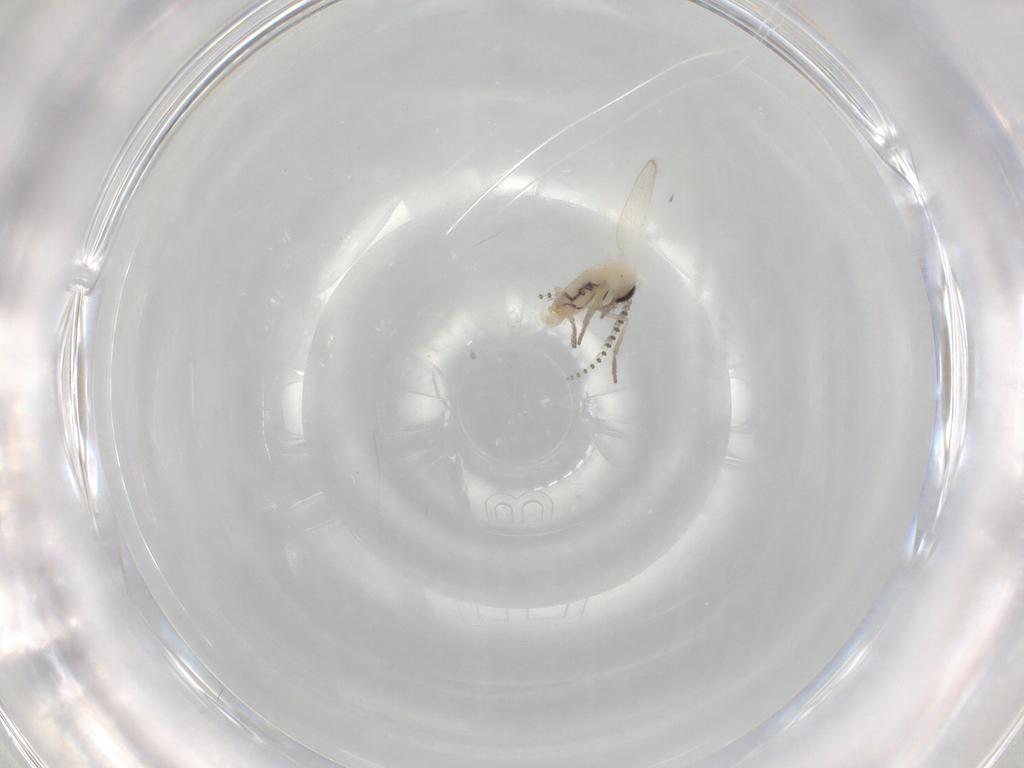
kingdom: Animalia
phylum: Arthropoda
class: Insecta
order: Diptera
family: Psychodidae
